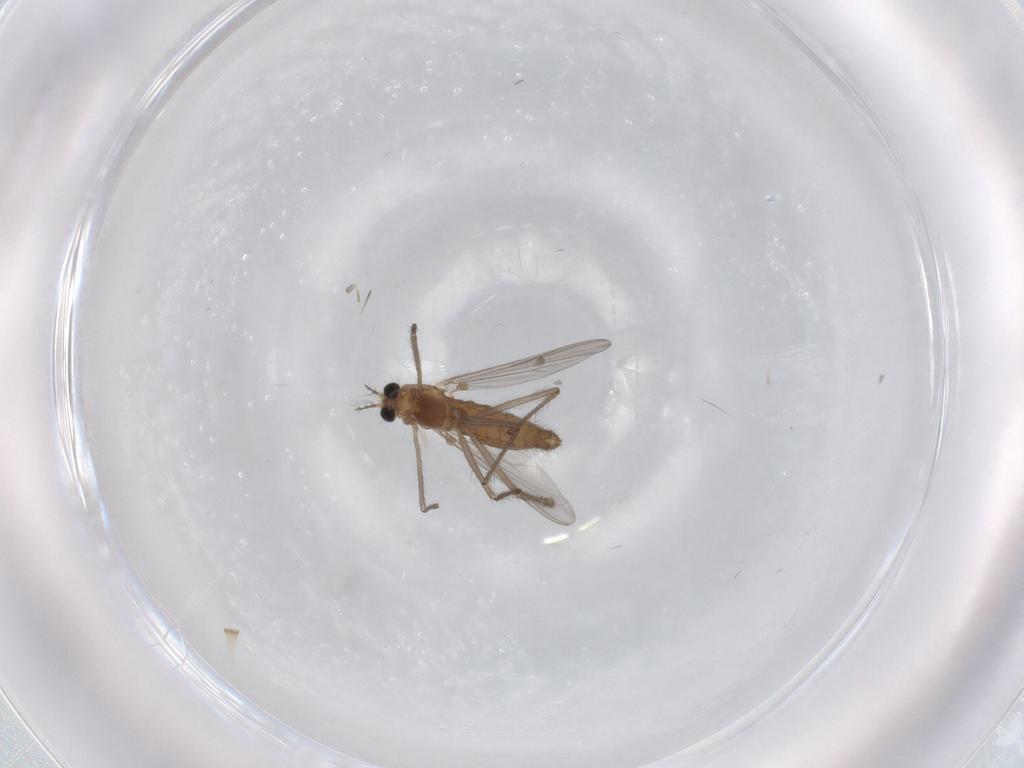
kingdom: Animalia
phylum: Arthropoda
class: Insecta
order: Diptera
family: Chironomidae
